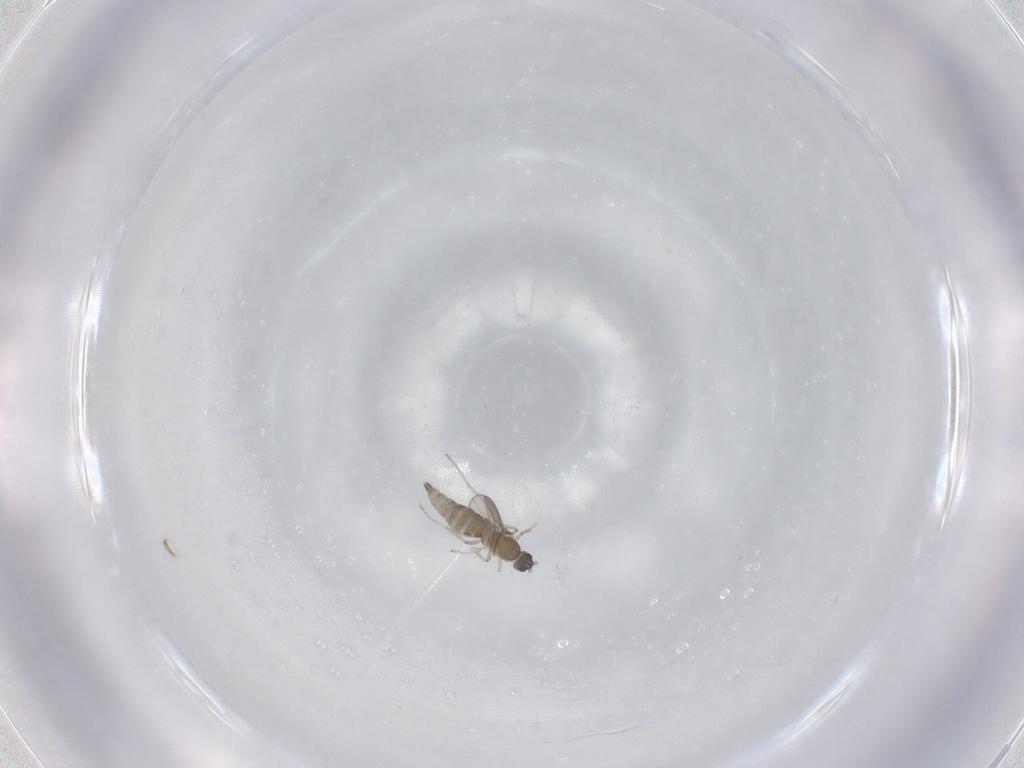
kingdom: Animalia
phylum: Arthropoda
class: Insecta
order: Diptera
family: Cecidomyiidae
